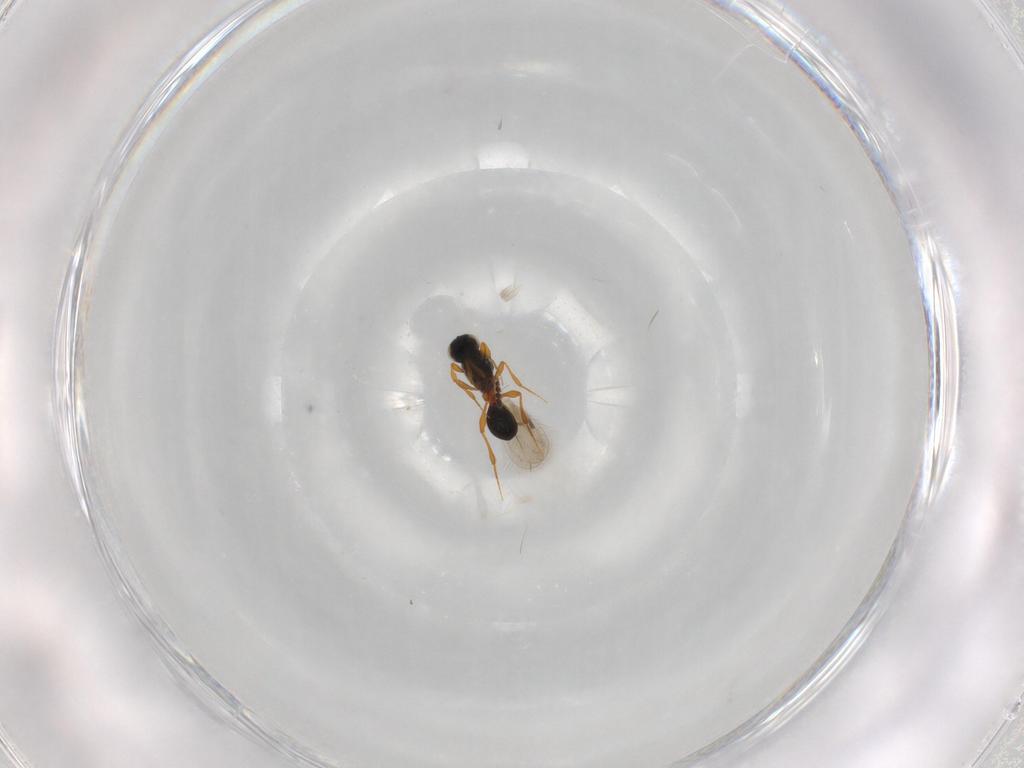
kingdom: Animalia
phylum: Arthropoda
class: Insecta
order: Hymenoptera
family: Platygastridae
